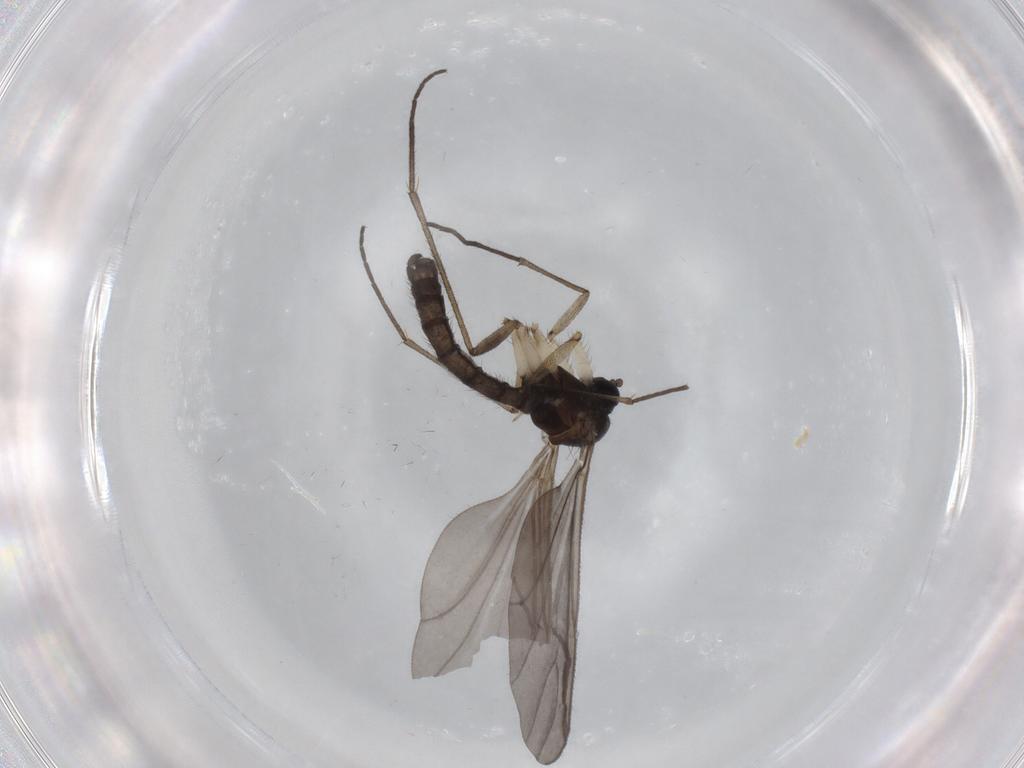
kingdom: Animalia
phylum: Arthropoda
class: Insecta
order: Diptera
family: Sciaridae
